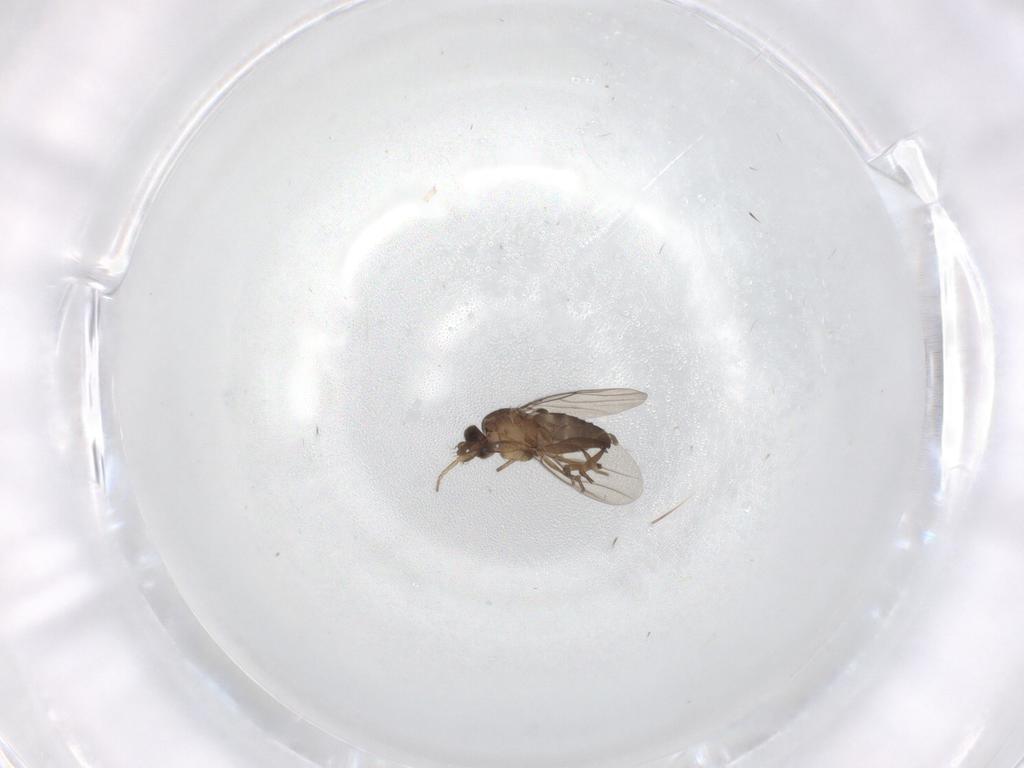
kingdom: Animalia
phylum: Arthropoda
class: Insecta
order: Diptera
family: Phoridae
